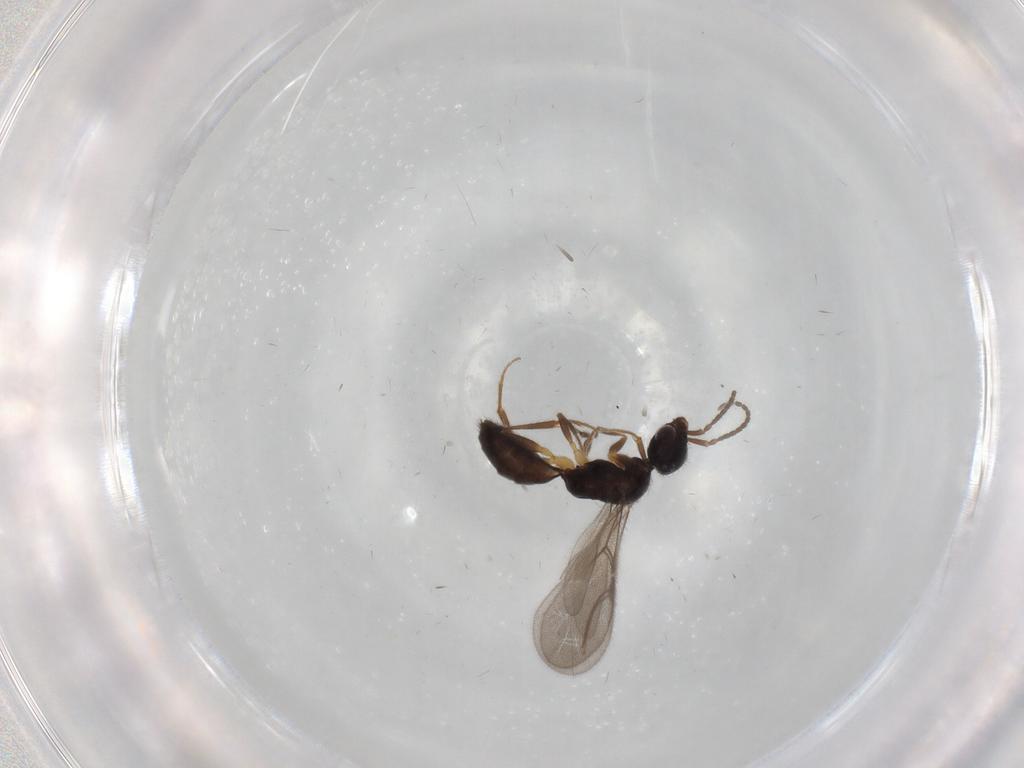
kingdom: Animalia
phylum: Arthropoda
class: Insecta
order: Hymenoptera
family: Bethylidae
